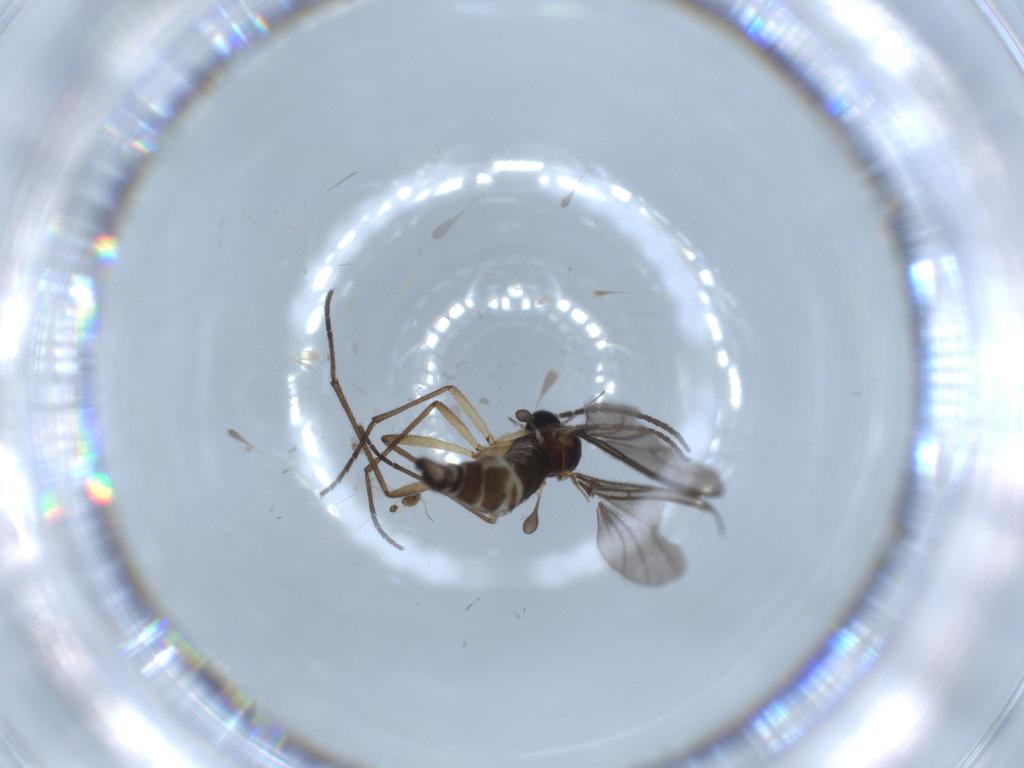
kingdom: Animalia
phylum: Arthropoda
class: Insecta
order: Diptera
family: Sciaridae
